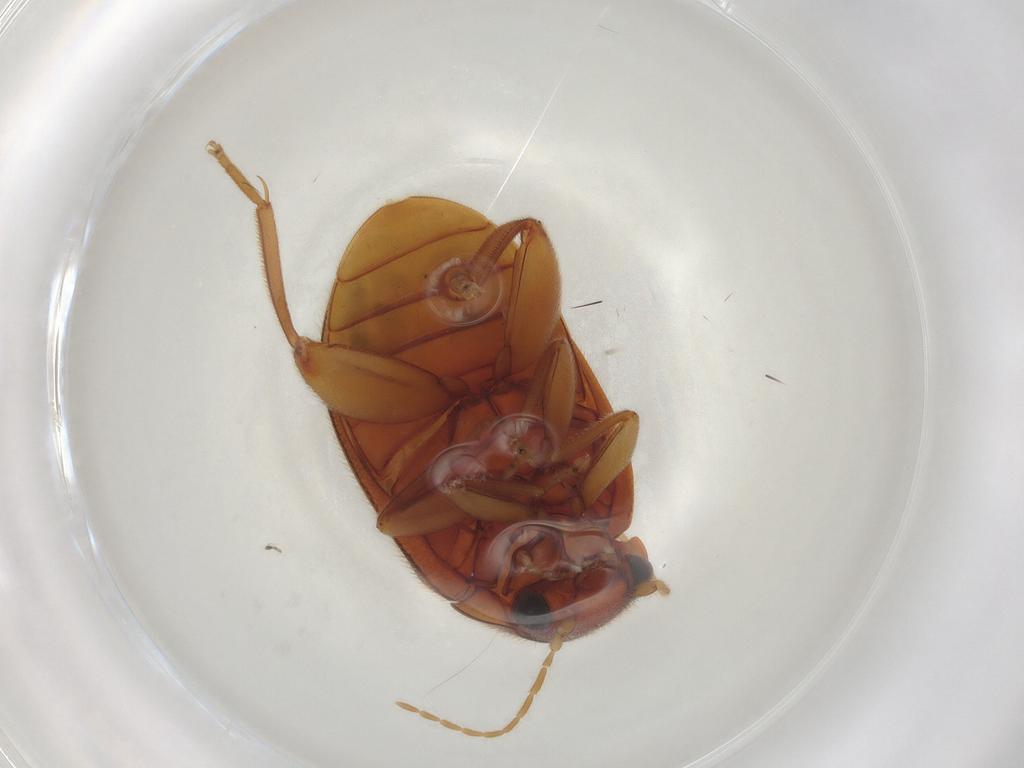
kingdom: Animalia
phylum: Arthropoda
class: Insecta
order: Coleoptera
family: Scirtidae
